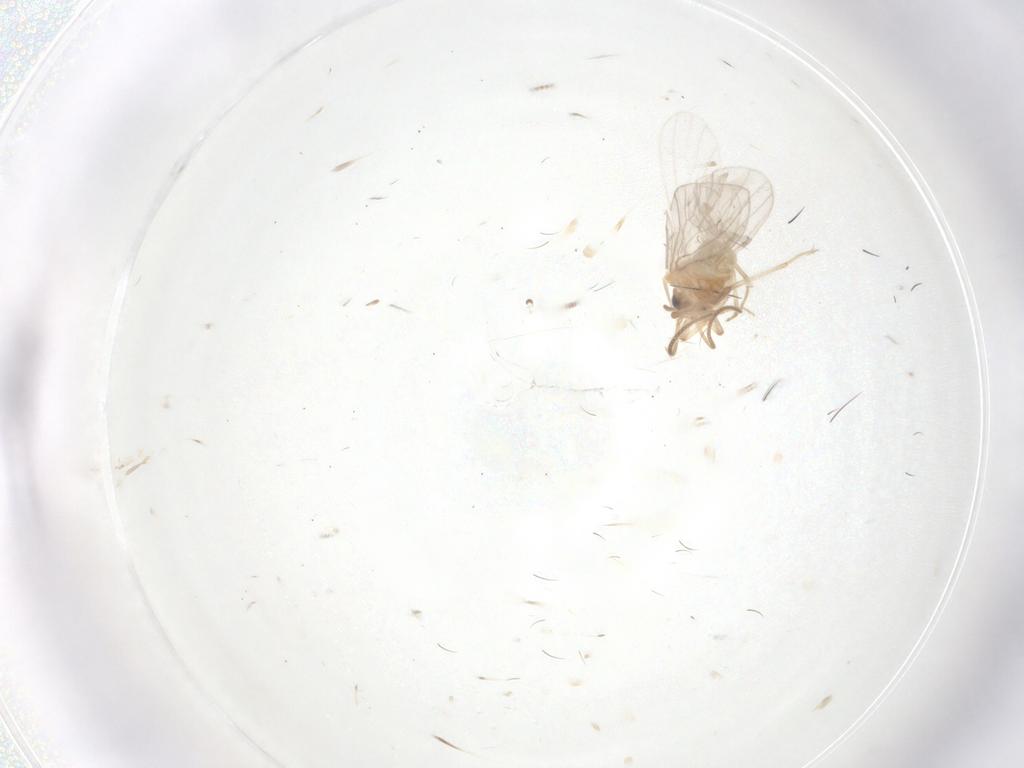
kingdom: Animalia
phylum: Arthropoda
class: Insecta
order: Neuroptera
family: Coniopterygidae
